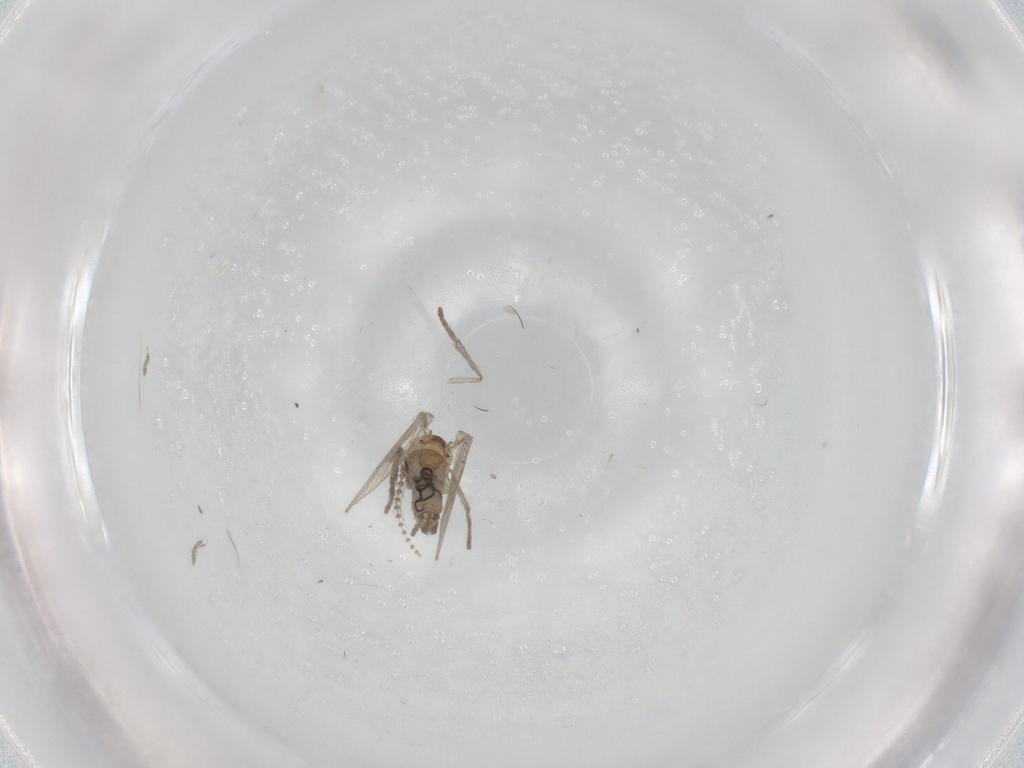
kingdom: Animalia
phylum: Arthropoda
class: Insecta
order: Diptera
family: Psychodidae
